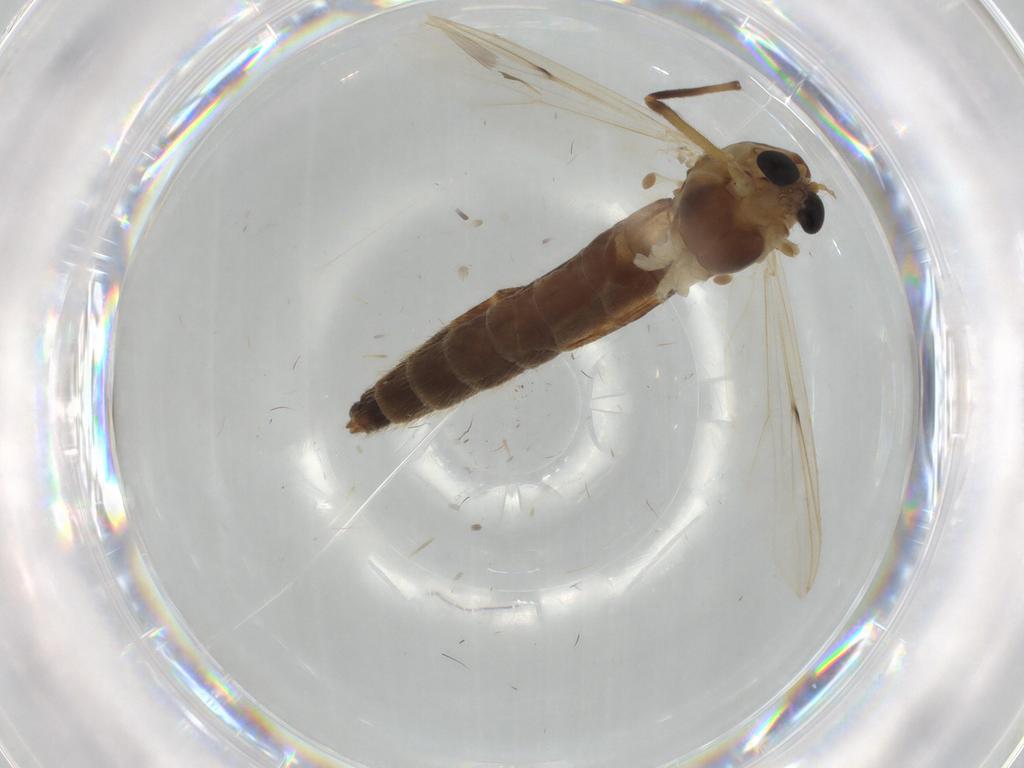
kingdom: Animalia
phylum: Arthropoda
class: Insecta
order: Diptera
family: Psychodidae
